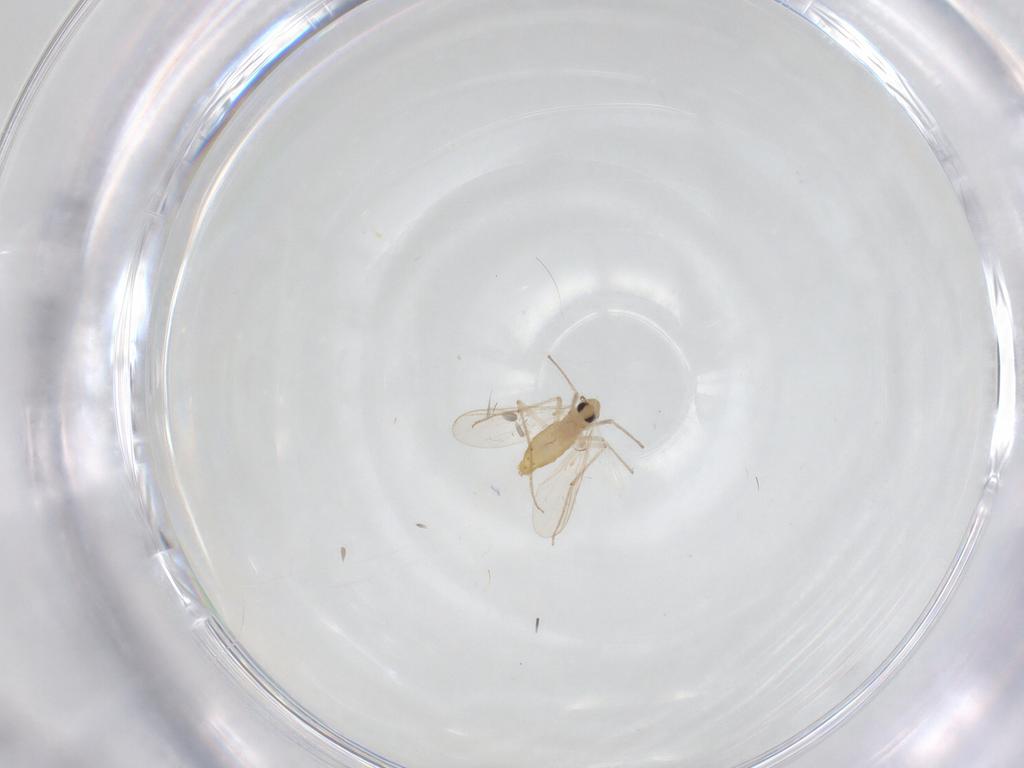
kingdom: Animalia
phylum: Arthropoda
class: Insecta
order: Diptera
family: Chironomidae
